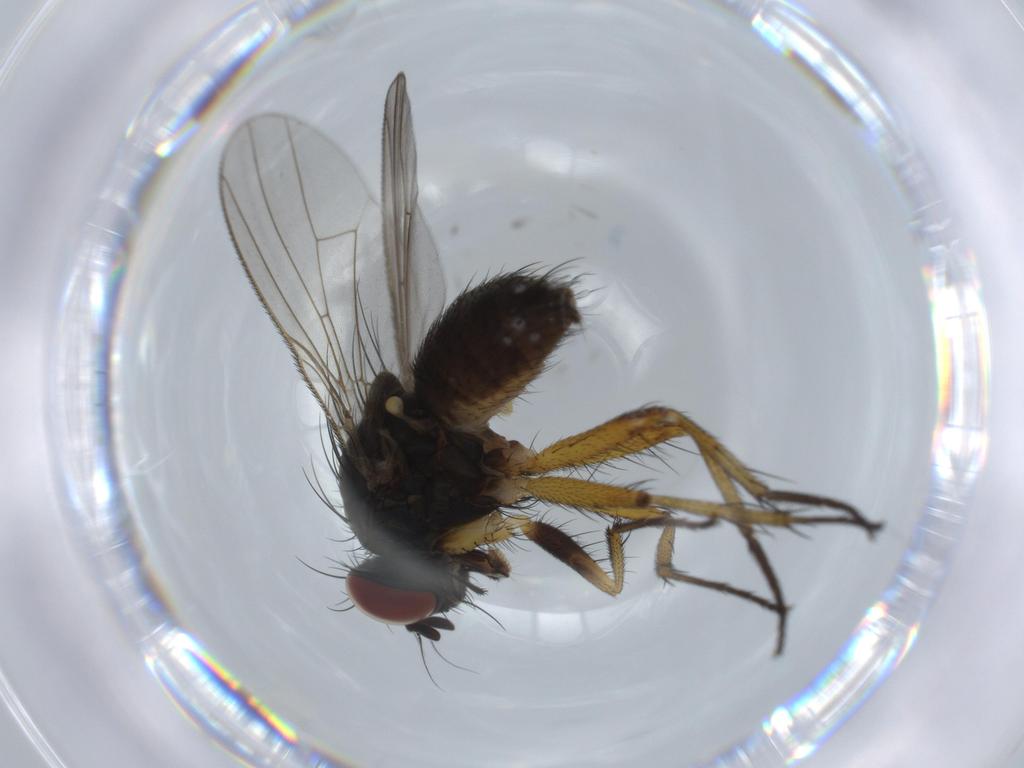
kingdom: Animalia
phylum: Arthropoda
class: Insecta
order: Diptera
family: Muscidae
